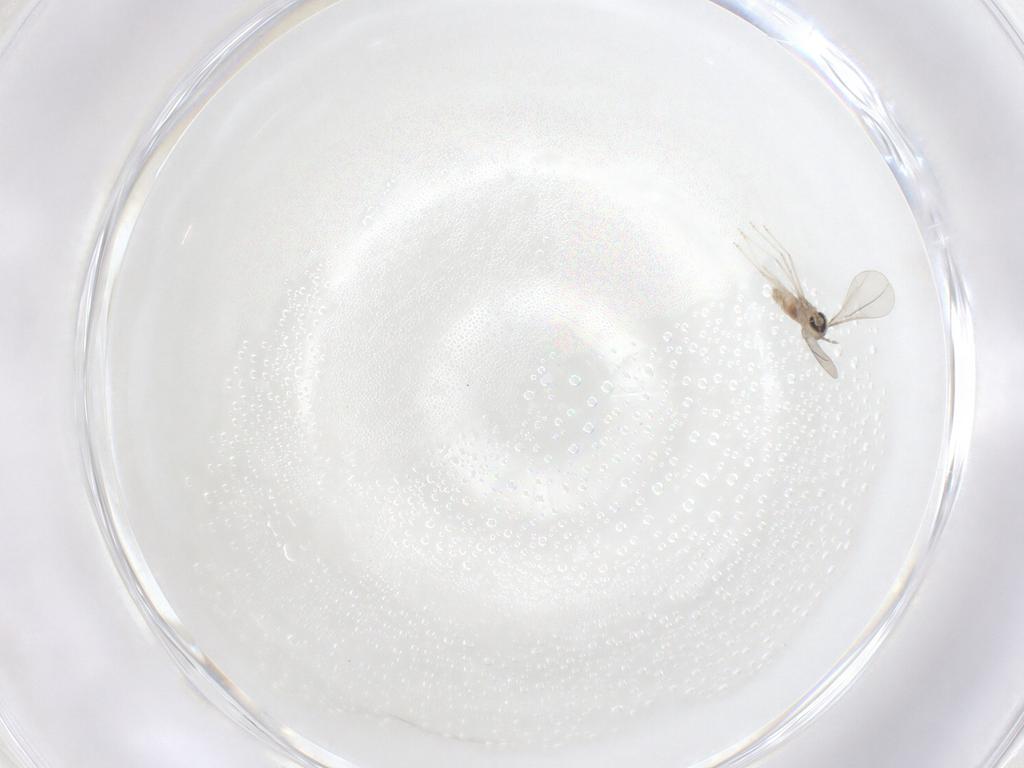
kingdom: Animalia
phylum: Arthropoda
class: Insecta
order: Diptera
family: Cecidomyiidae
